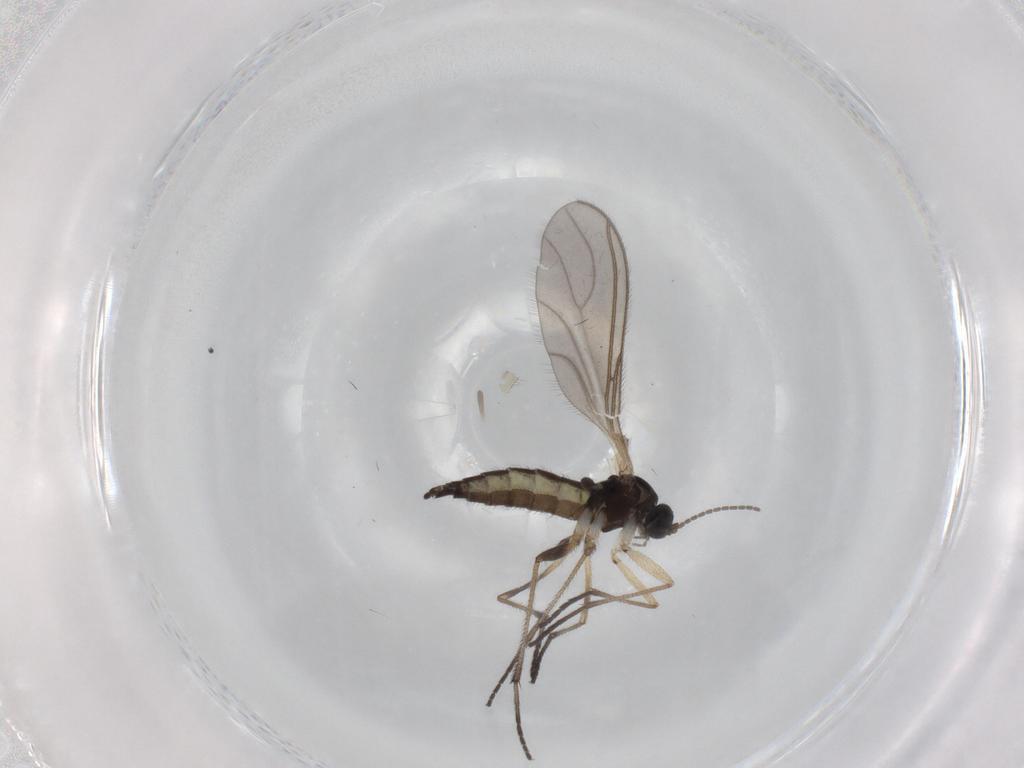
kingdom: Animalia
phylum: Arthropoda
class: Insecta
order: Diptera
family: Sciaridae
